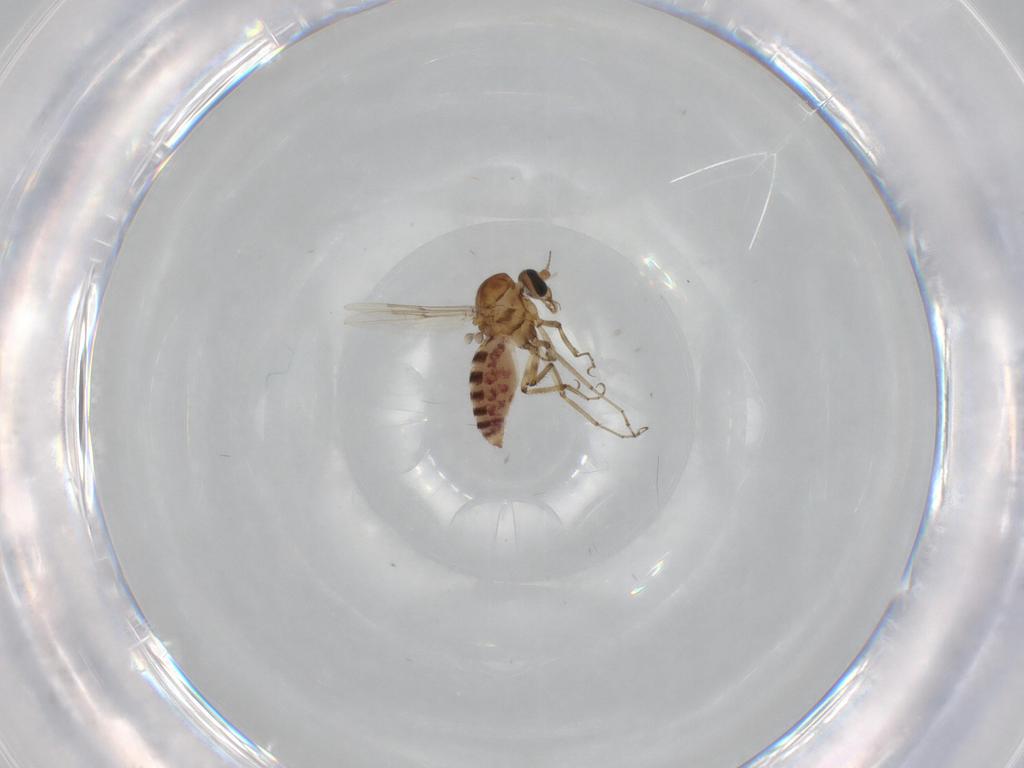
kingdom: Animalia
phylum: Arthropoda
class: Insecta
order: Diptera
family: Ceratopogonidae
